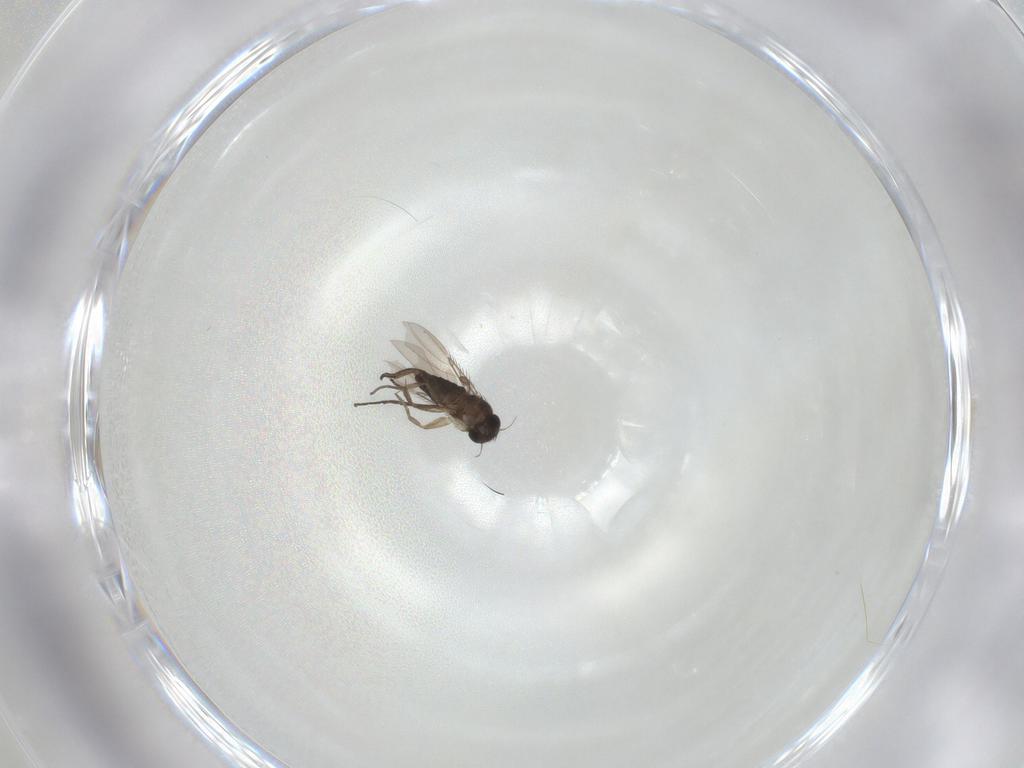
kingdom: Animalia
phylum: Arthropoda
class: Insecta
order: Diptera
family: Phoridae
